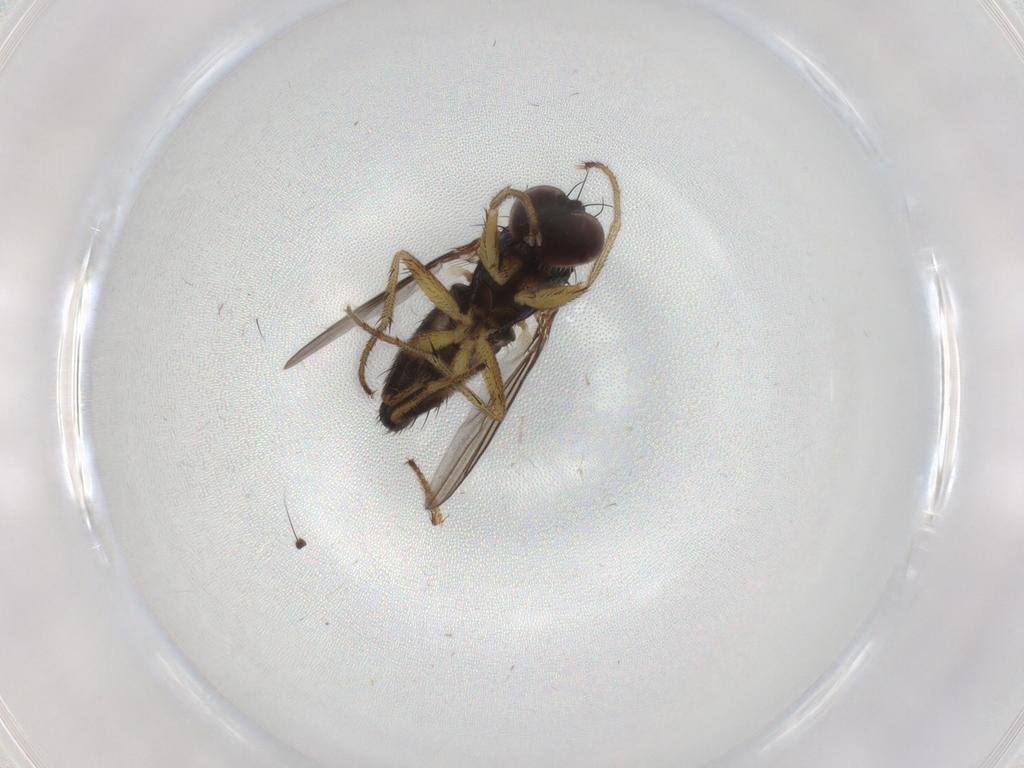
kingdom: Animalia
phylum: Arthropoda
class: Insecta
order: Diptera
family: Dolichopodidae
